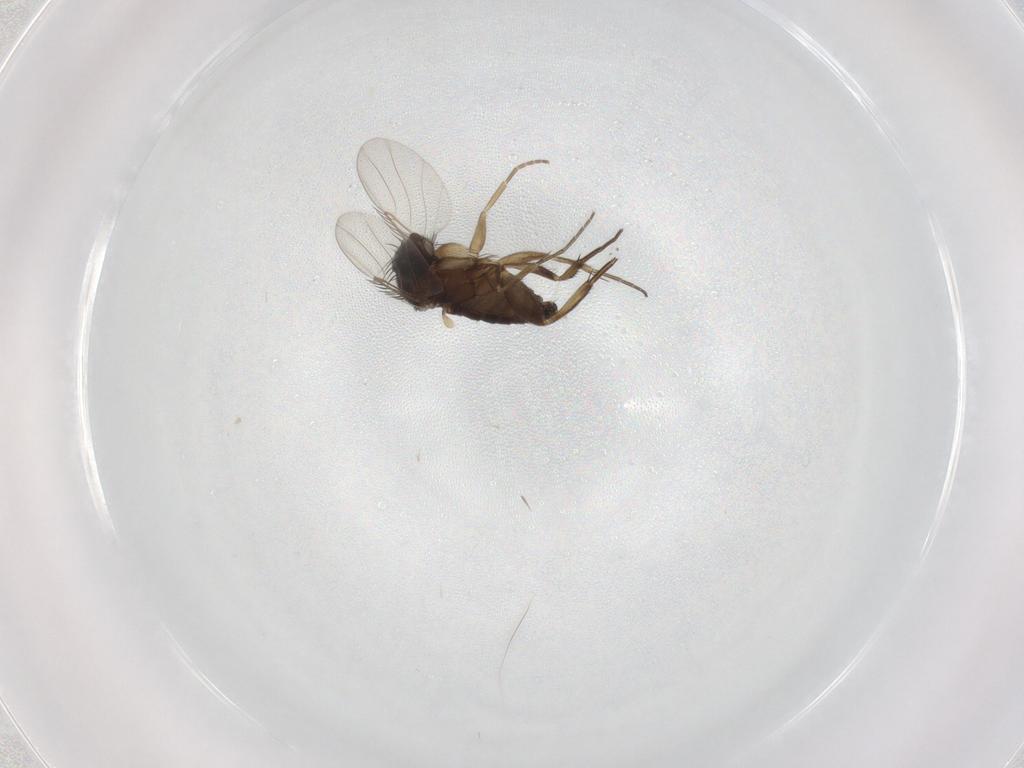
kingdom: Animalia
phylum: Arthropoda
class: Insecta
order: Diptera
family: Phoridae
